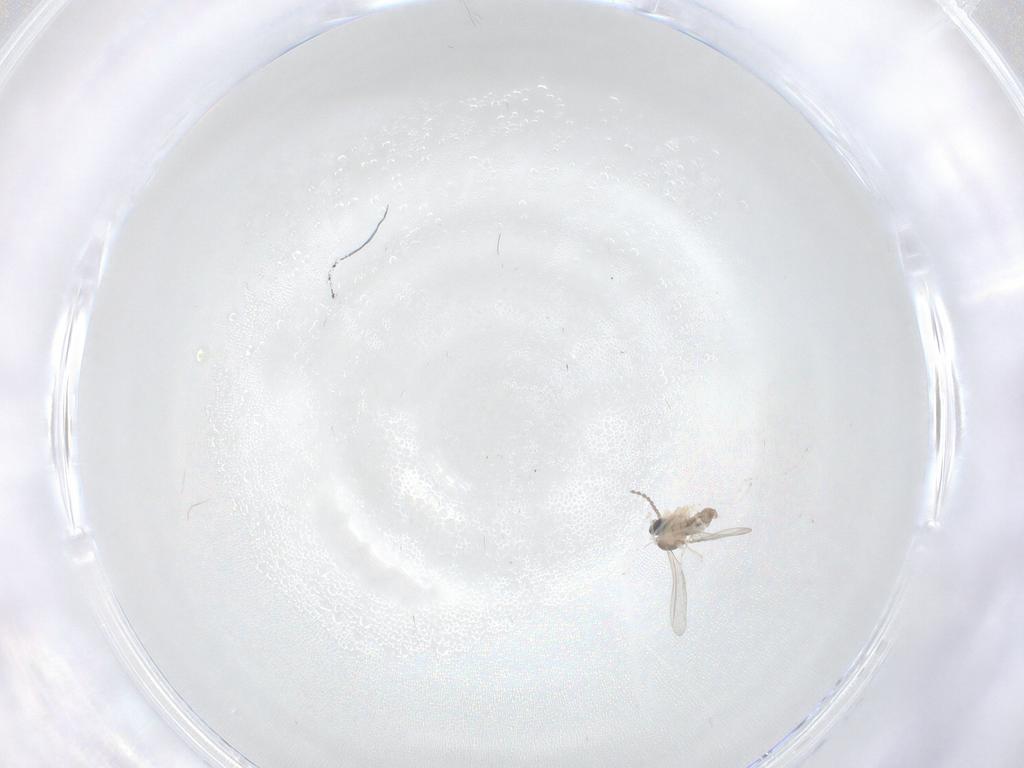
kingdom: Animalia
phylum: Arthropoda
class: Insecta
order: Diptera
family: Cecidomyiidae
